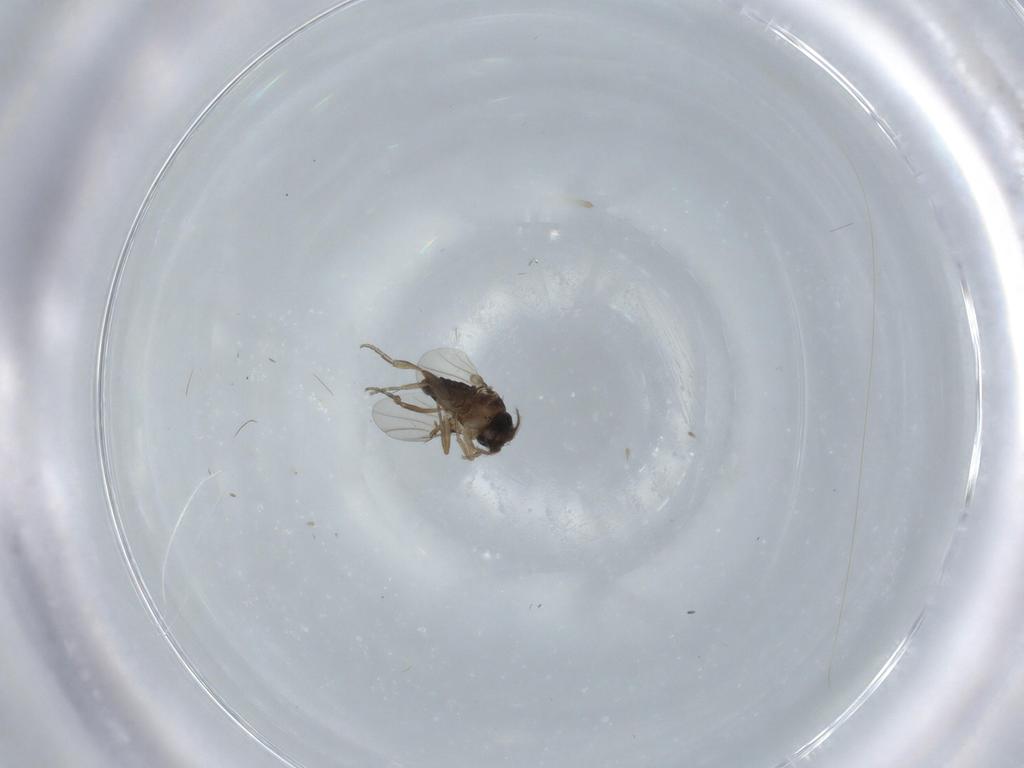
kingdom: Animalia
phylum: Arthropoda
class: Insecta
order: Diptera
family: Phoridae
